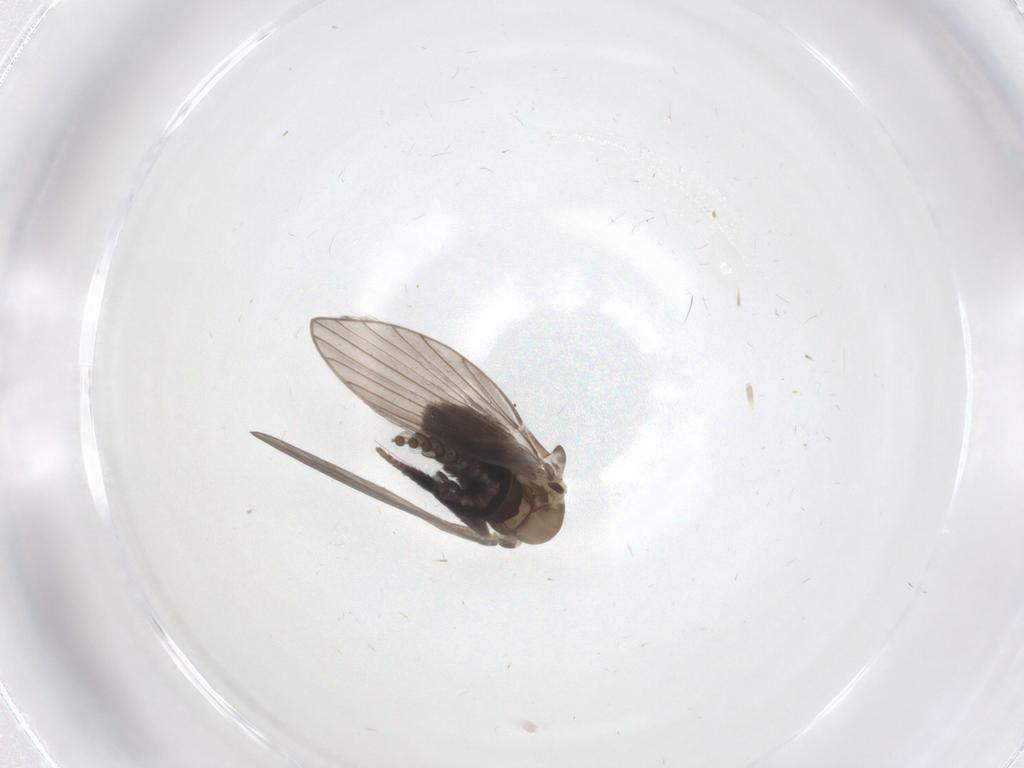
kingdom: Animalia
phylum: Arthropoda
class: Insecta
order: Diptera
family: Psychodidae
